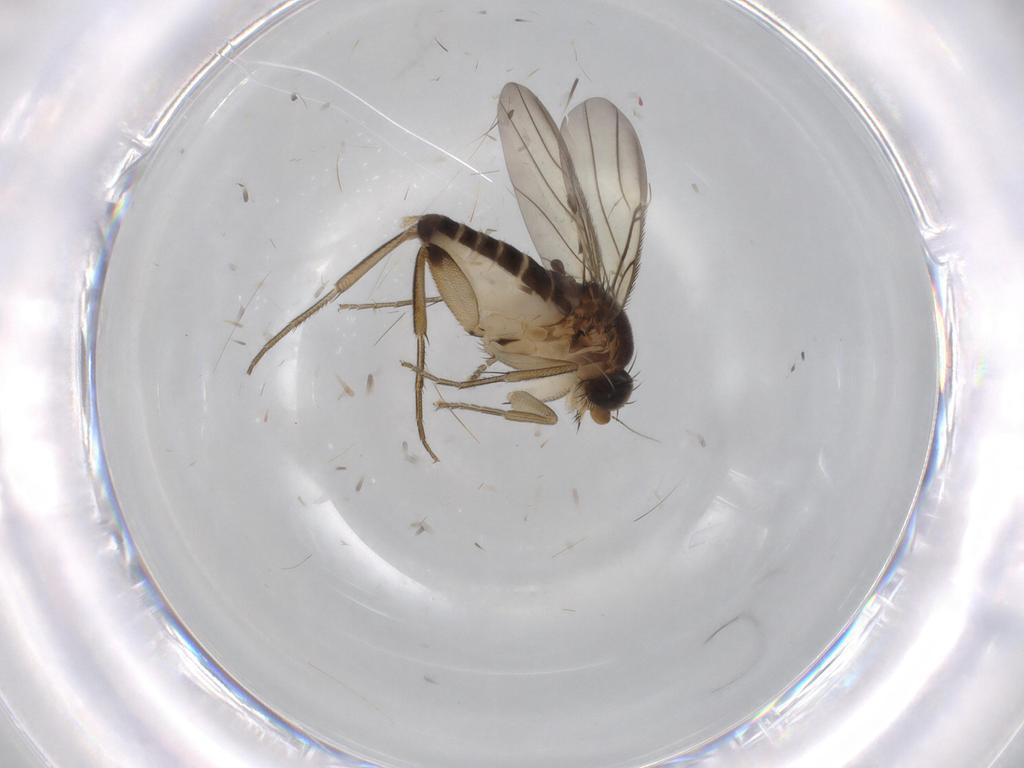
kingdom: Animalia
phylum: Arthropoda
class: Insecta
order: Diptera
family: Phoridae
